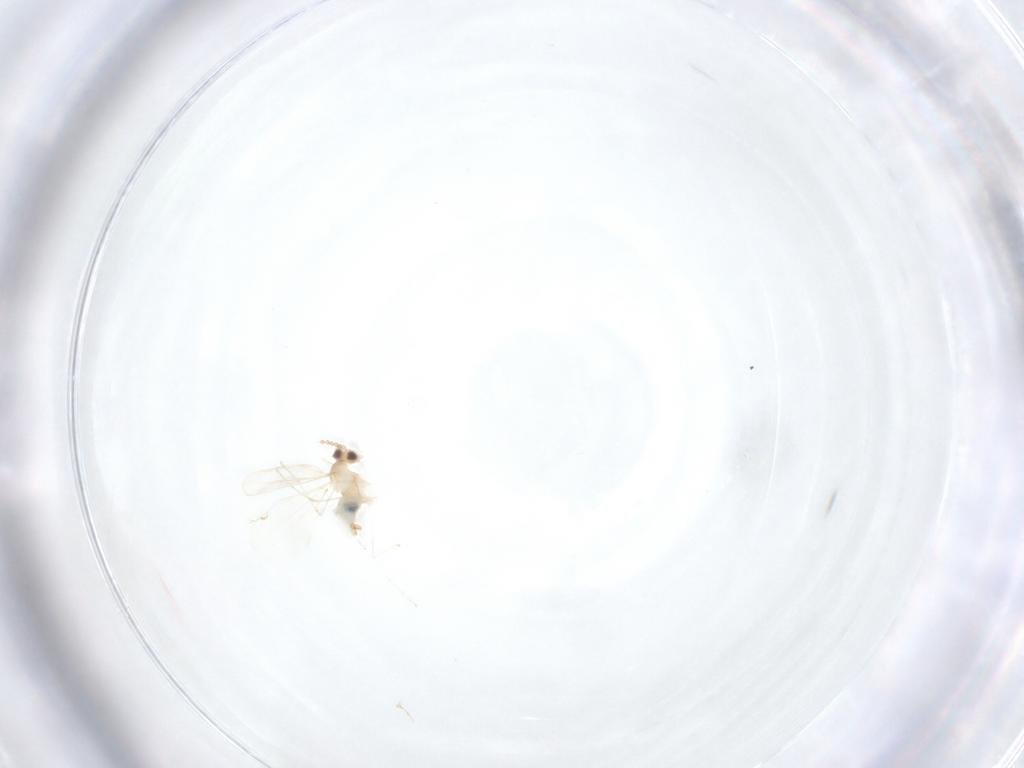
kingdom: Animalia
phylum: Arthropoda
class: Insecta
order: Diptera
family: Cecidomyiidae
